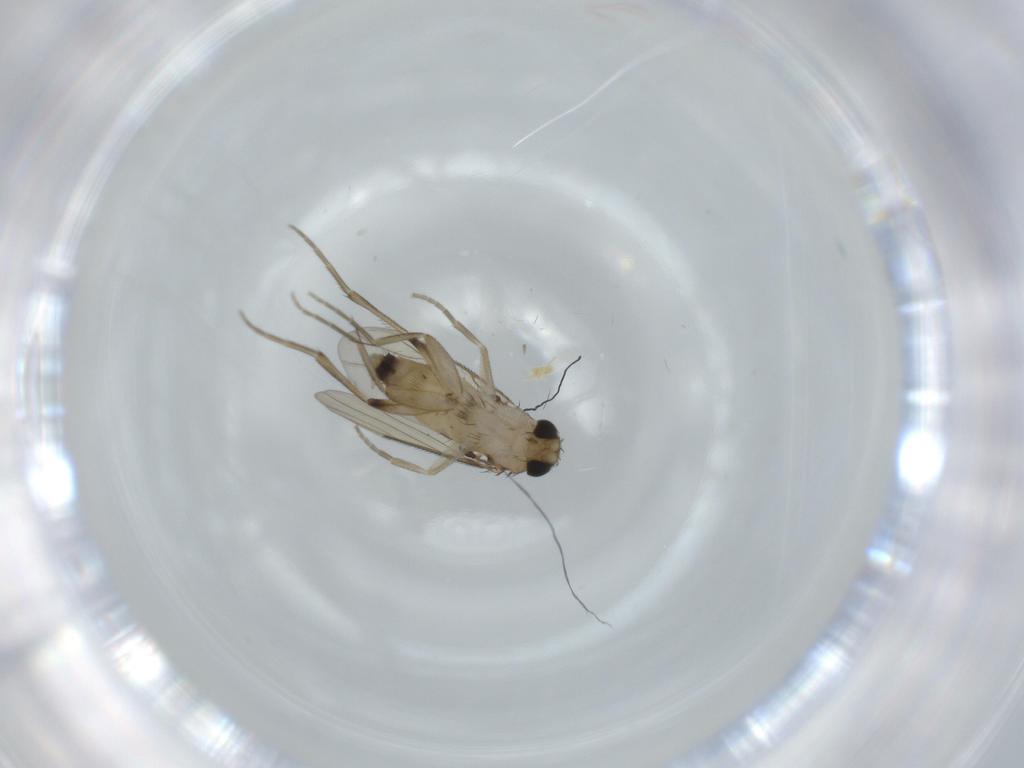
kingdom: Animalia
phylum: Arthropoda
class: Insecta
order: Diptera
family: Phoridae
